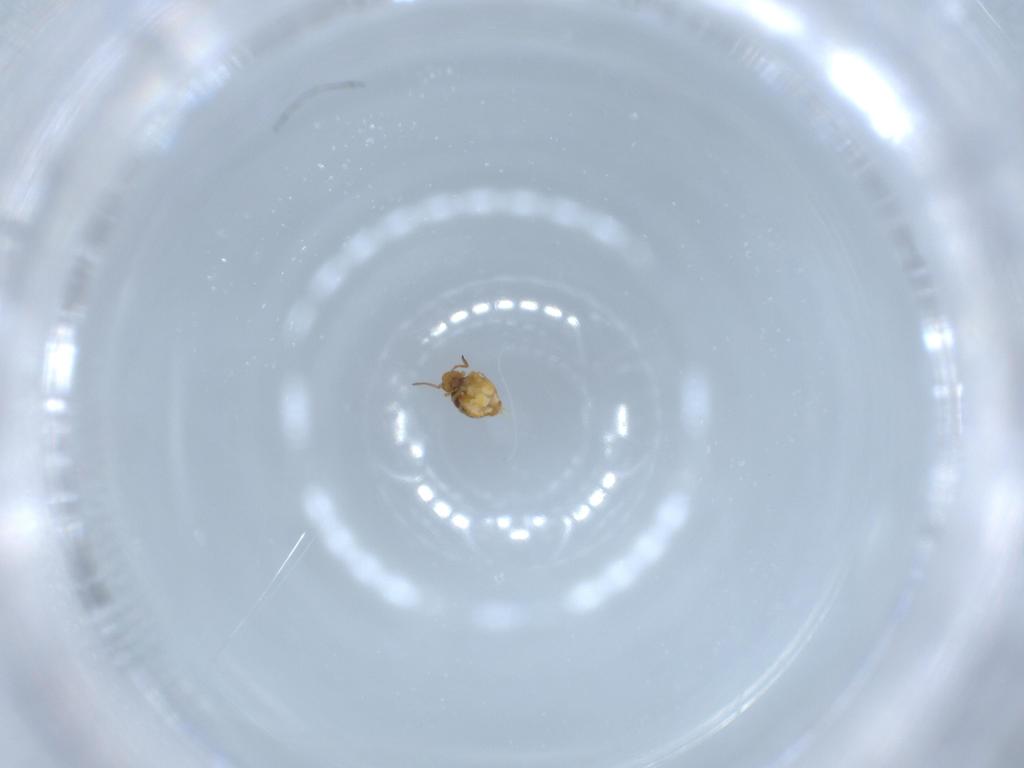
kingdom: Animalia
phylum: Arthropoda
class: Collembola
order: Symphypleona
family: Katiannidae
